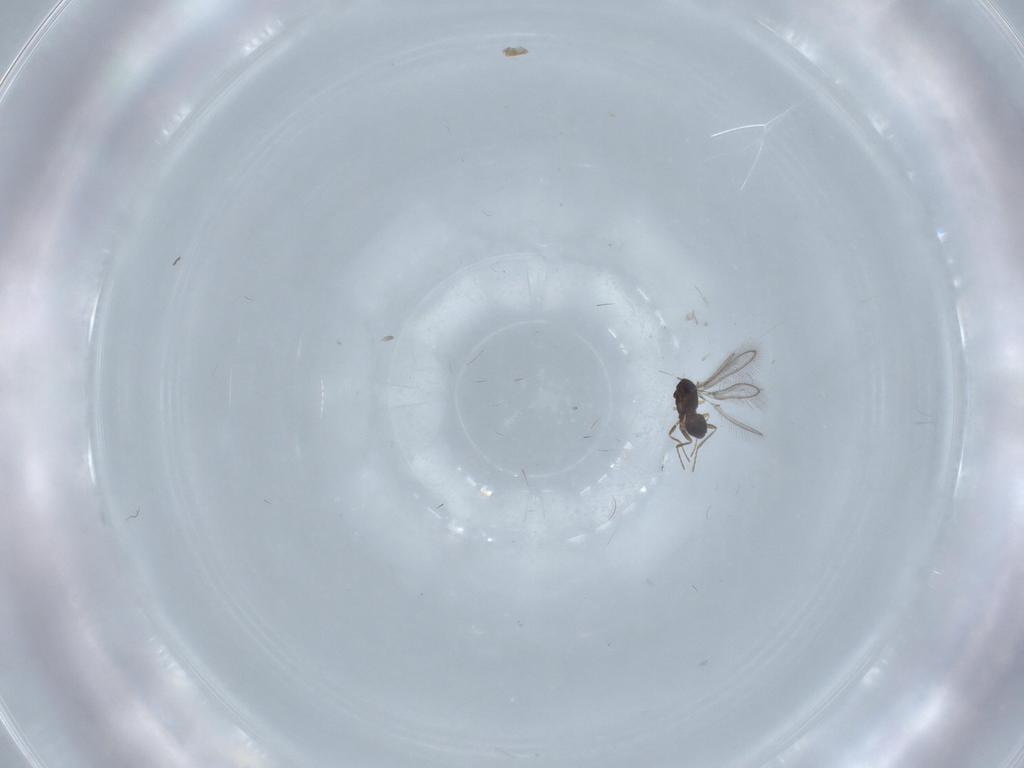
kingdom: Animalia
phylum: Arthropoda
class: Insecta
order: Hymenoptera
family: Mymaridae
